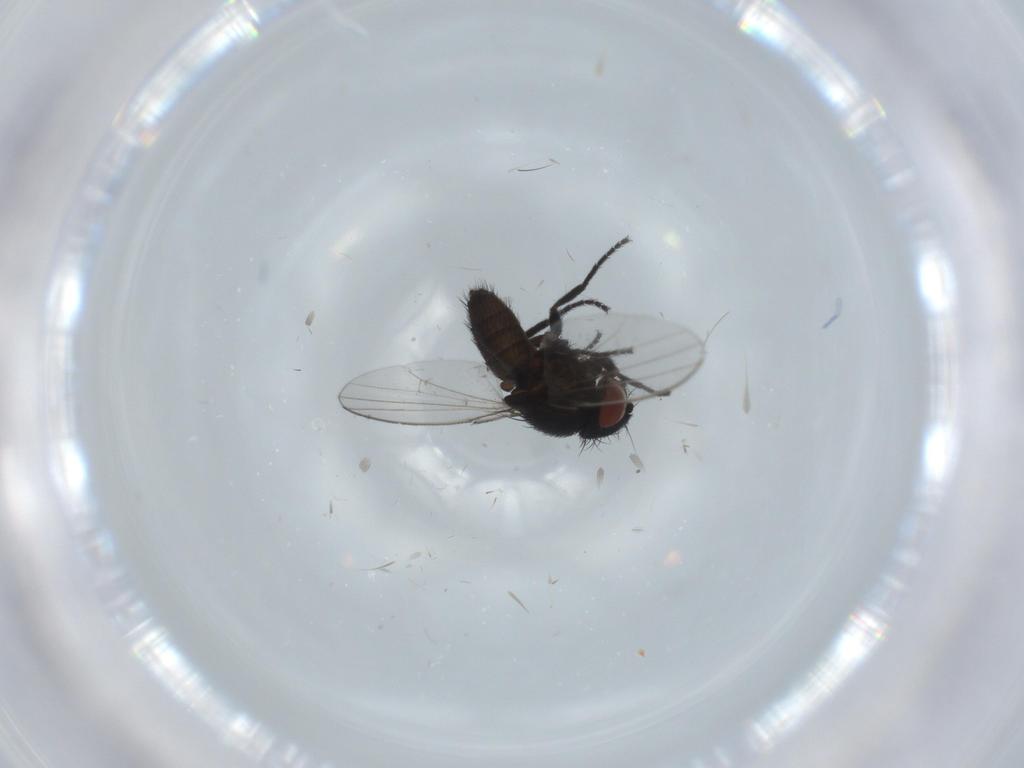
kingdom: Animalia
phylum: Arthropoda
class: Insecta
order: Diptera
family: Milichiidae
